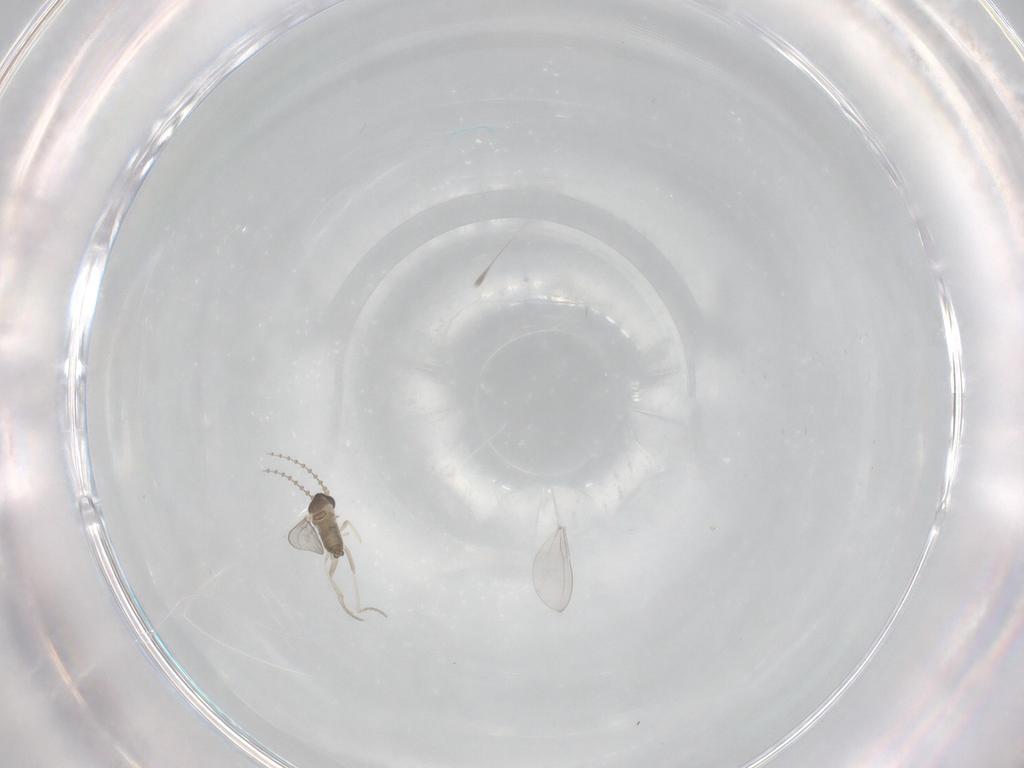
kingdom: Animalia
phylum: Arthropoda
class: Insecta
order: Diptera
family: Cecidomyiidae
